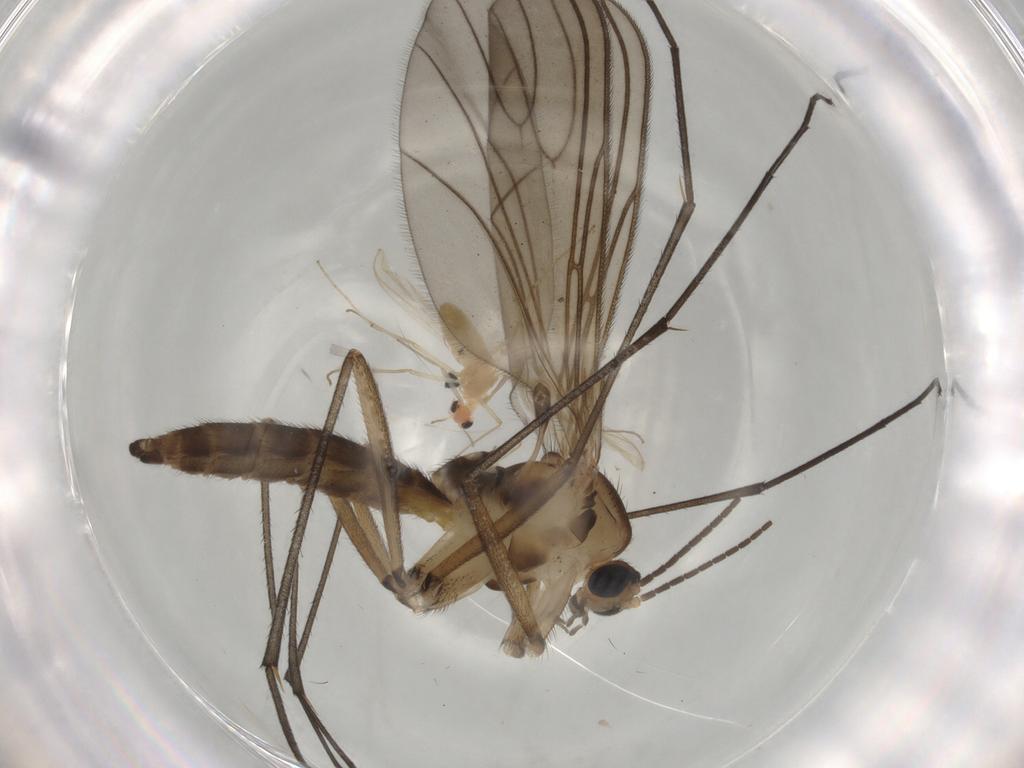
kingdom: Animalia
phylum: Arthropoda
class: Insecta
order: Diptera
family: Chironomidae
